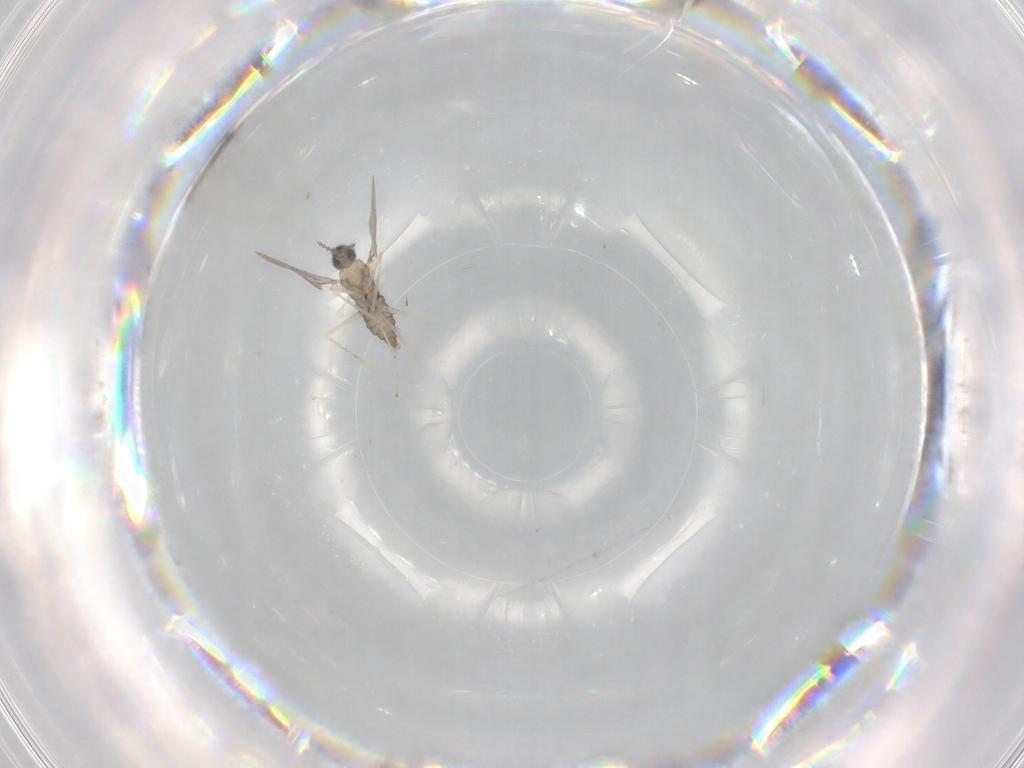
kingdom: Animalia
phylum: Arthropoda
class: Insecta
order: Diptera
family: Cecidomyiidae
